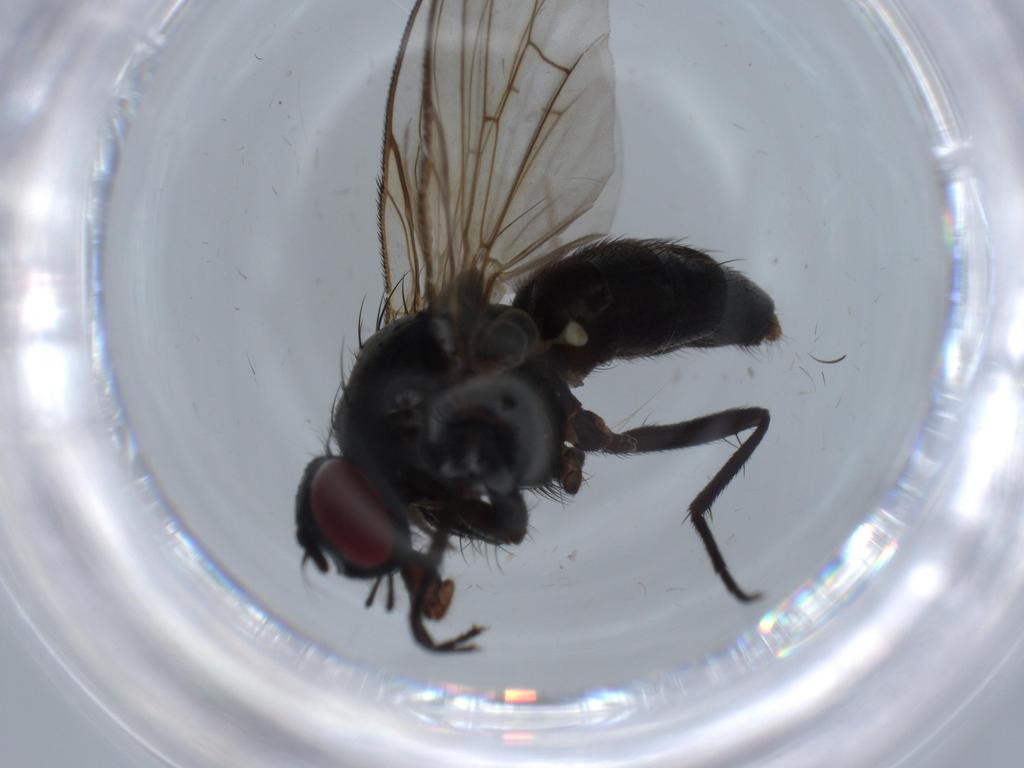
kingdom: Animalia
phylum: Arthropoda
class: Insecta
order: Diptera
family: Muscidae
